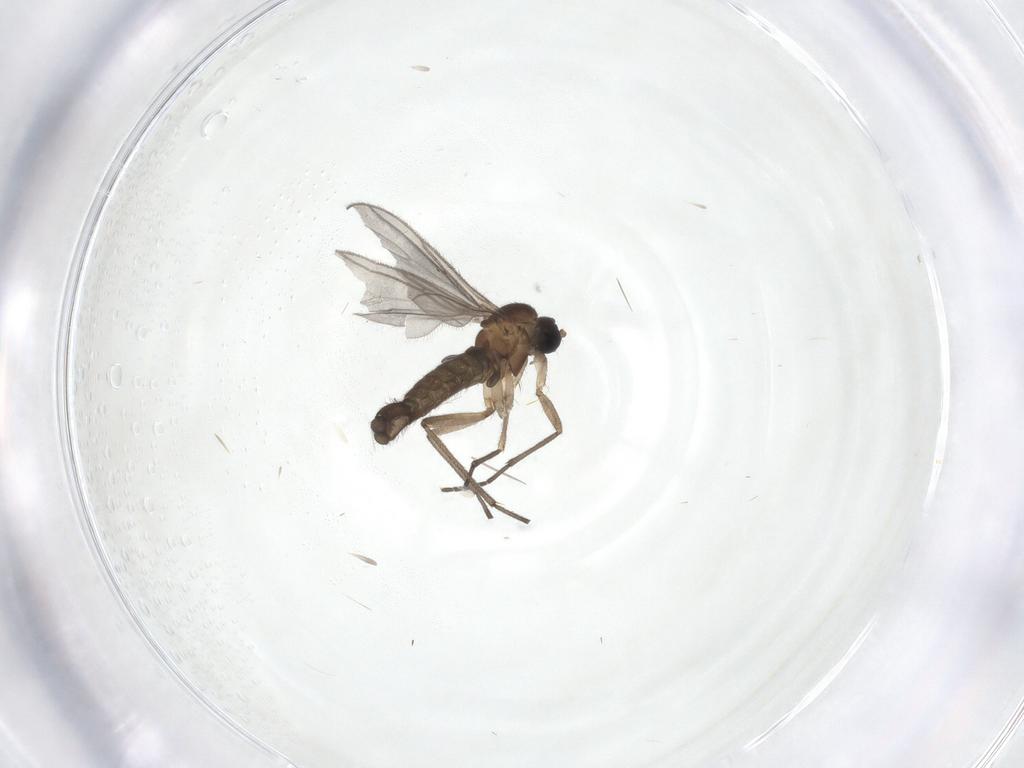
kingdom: Animalia
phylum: Arthropoda
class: Insecta
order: Diptera
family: Sciaridae
